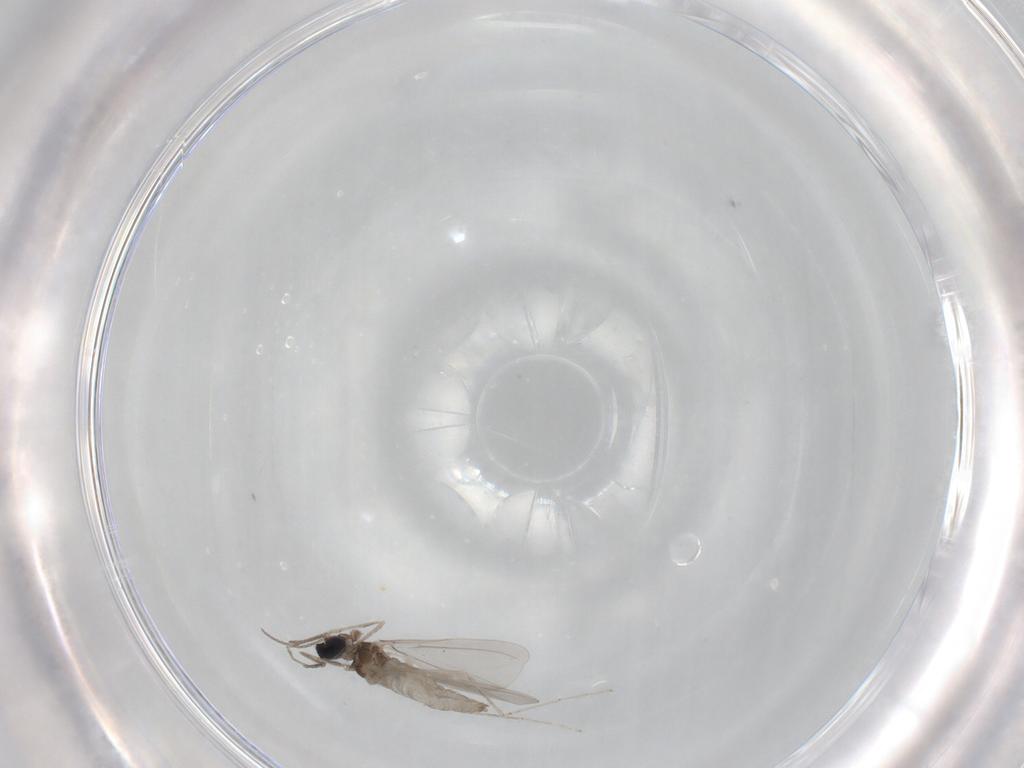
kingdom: Animalia
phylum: Arthropoda
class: Insecta
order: Diptera
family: Cecidomyiidae
